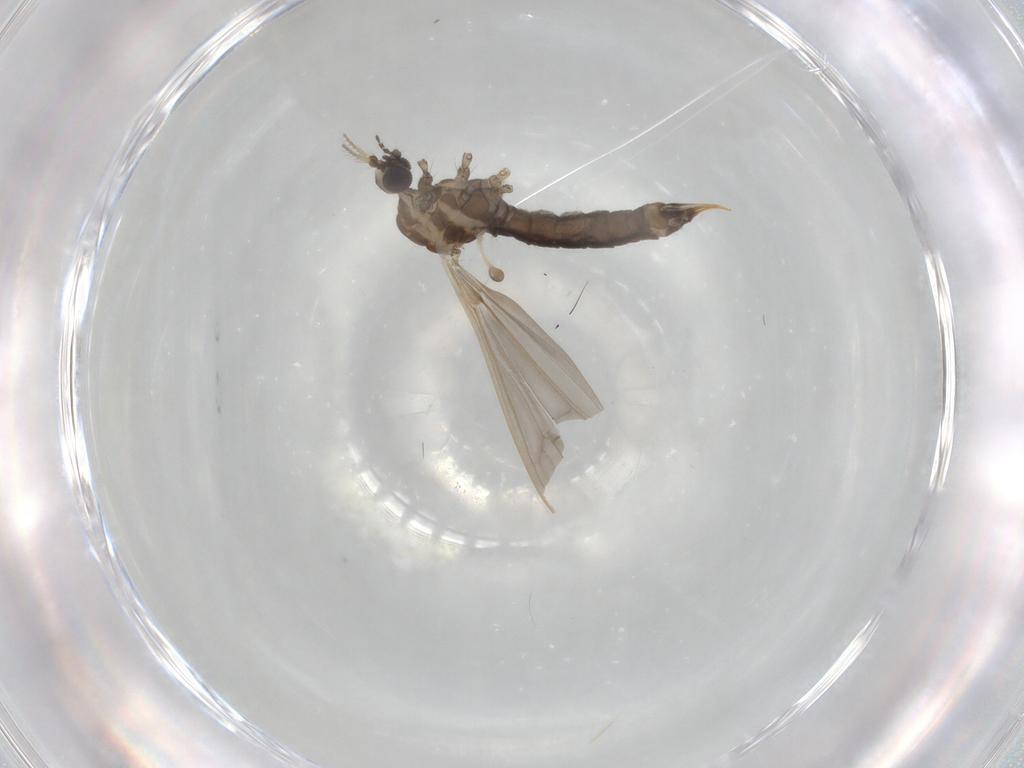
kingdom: Animalia
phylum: Arthropoda
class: Insecta
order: Diptera
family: Limoniidae
